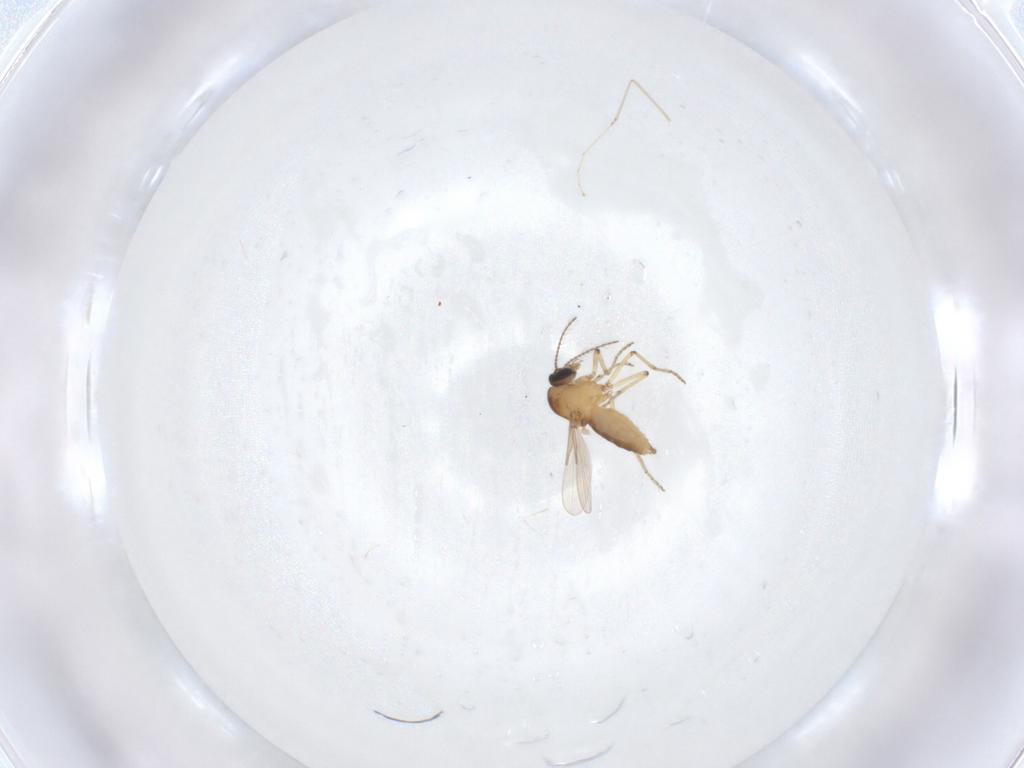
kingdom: Animalia
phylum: Arthropoda
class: Insecta
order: Diptera
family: Ceratopogonidae
